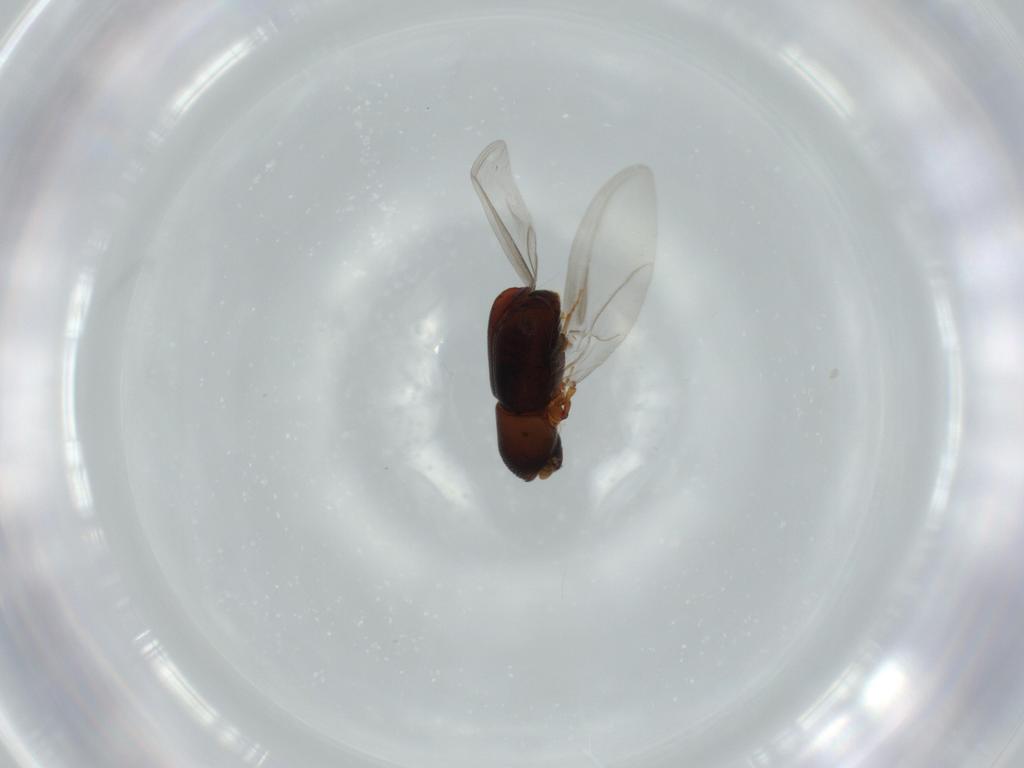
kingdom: Animalia
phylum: Arthropoda
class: Insecta
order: Coleoptera
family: Curculionidae
